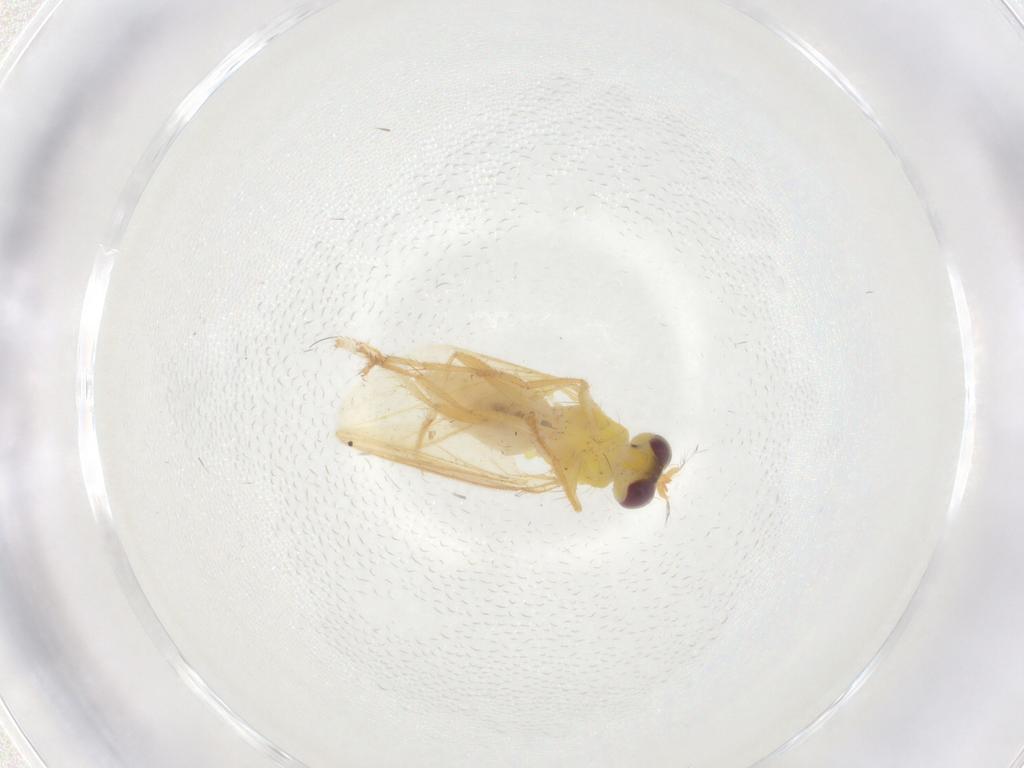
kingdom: Animalia
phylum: Arthropoda
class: Insecta
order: Diptera
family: Periscelididae
